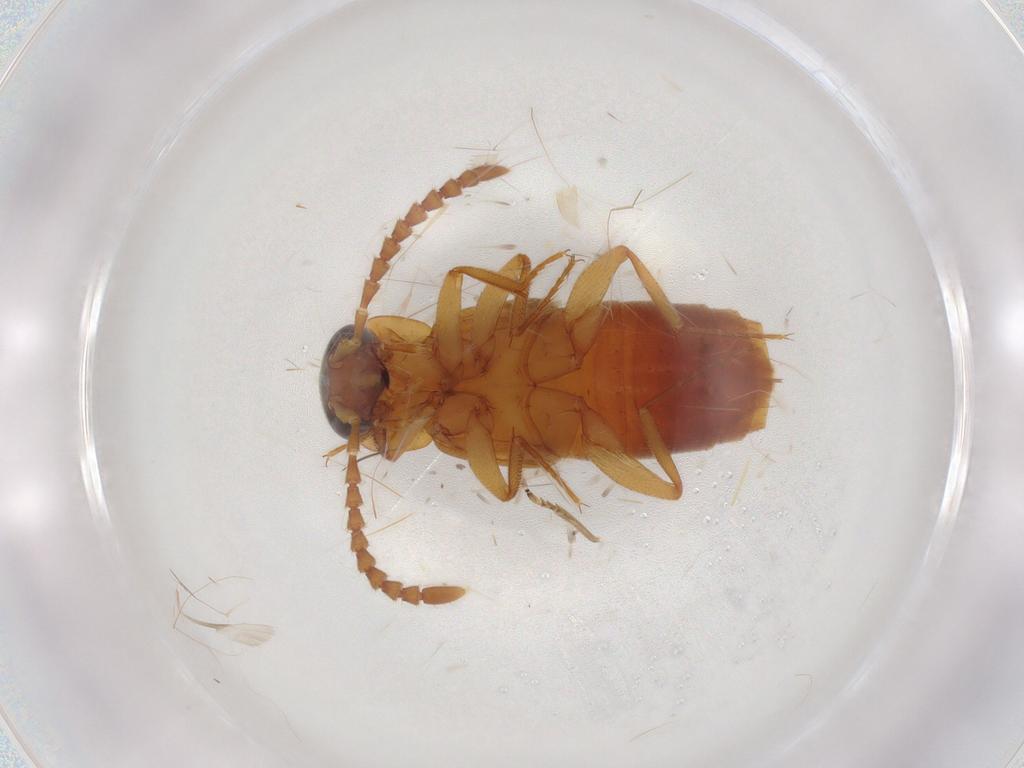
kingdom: Animalia
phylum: Arthropoda
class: Insecta
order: Coleoptera
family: Staphylinidae
